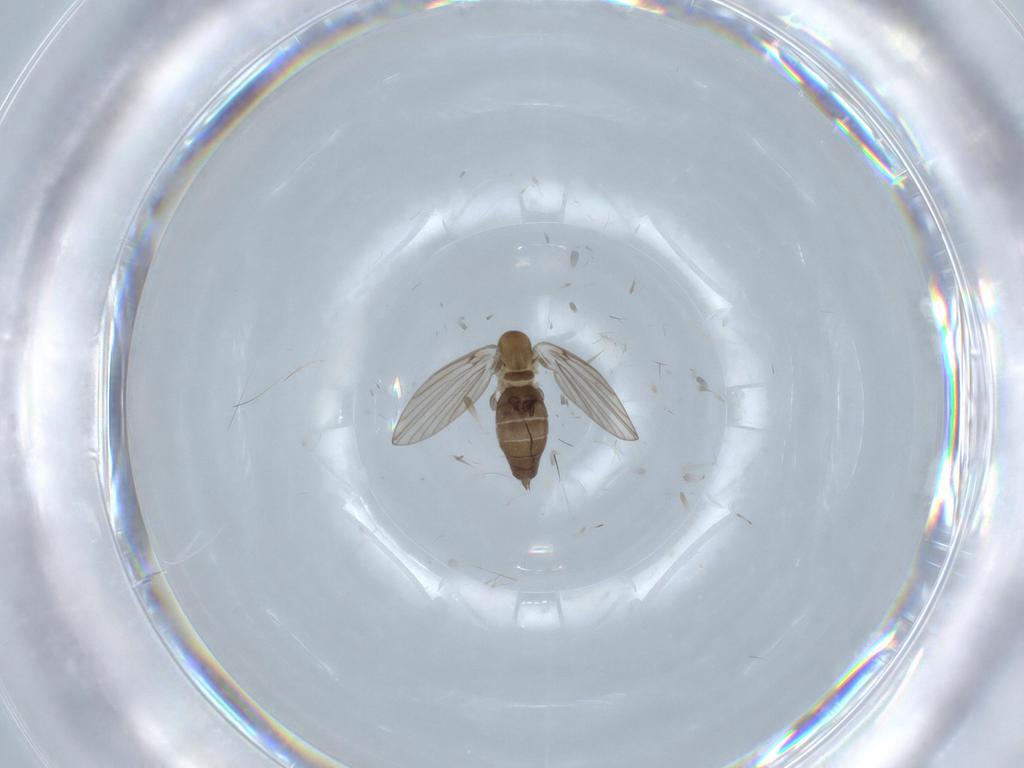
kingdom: Animalia
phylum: Arthropoda
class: Insecta
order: Diptera
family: Psychodidae
